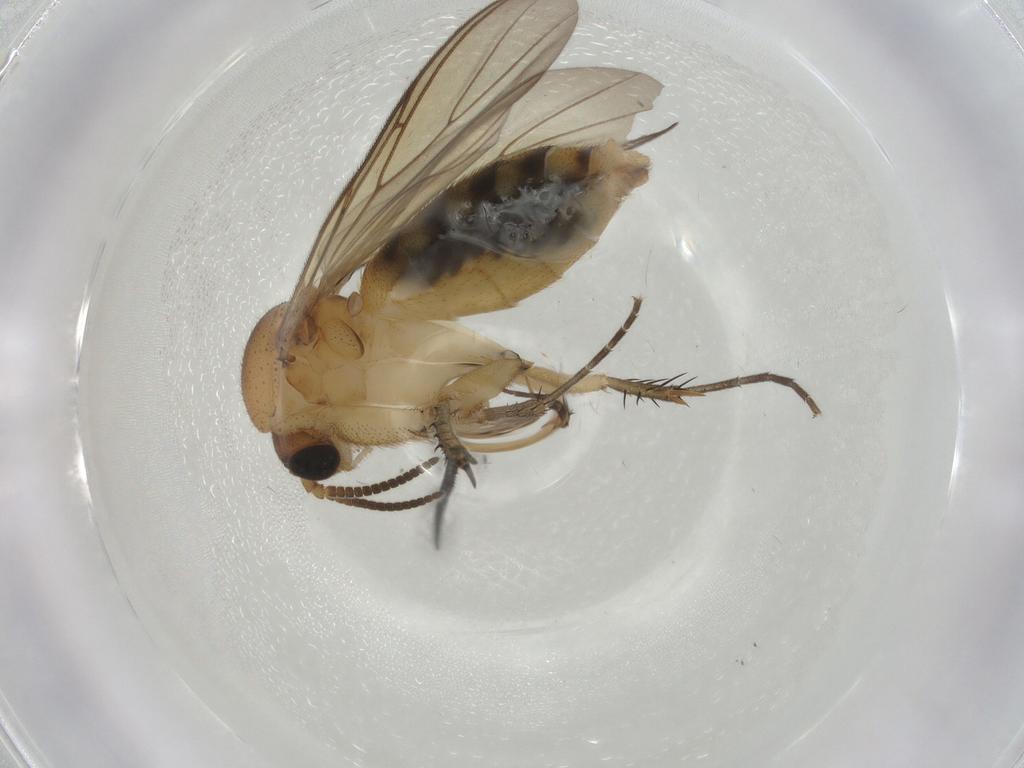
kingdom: Animalia
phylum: Arthropoda
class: Insecta
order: Diptera
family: Mycetophilidae
